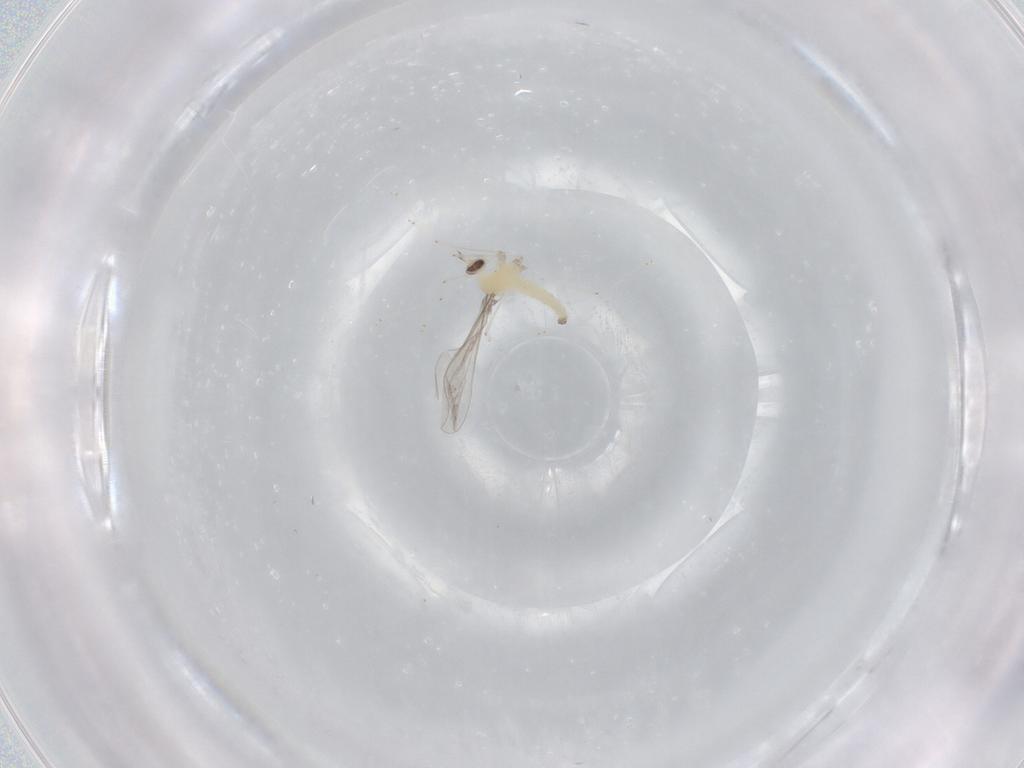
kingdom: Animalia
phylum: Arthropoda
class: Insecta
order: Diptera
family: Cecidomyiidae
